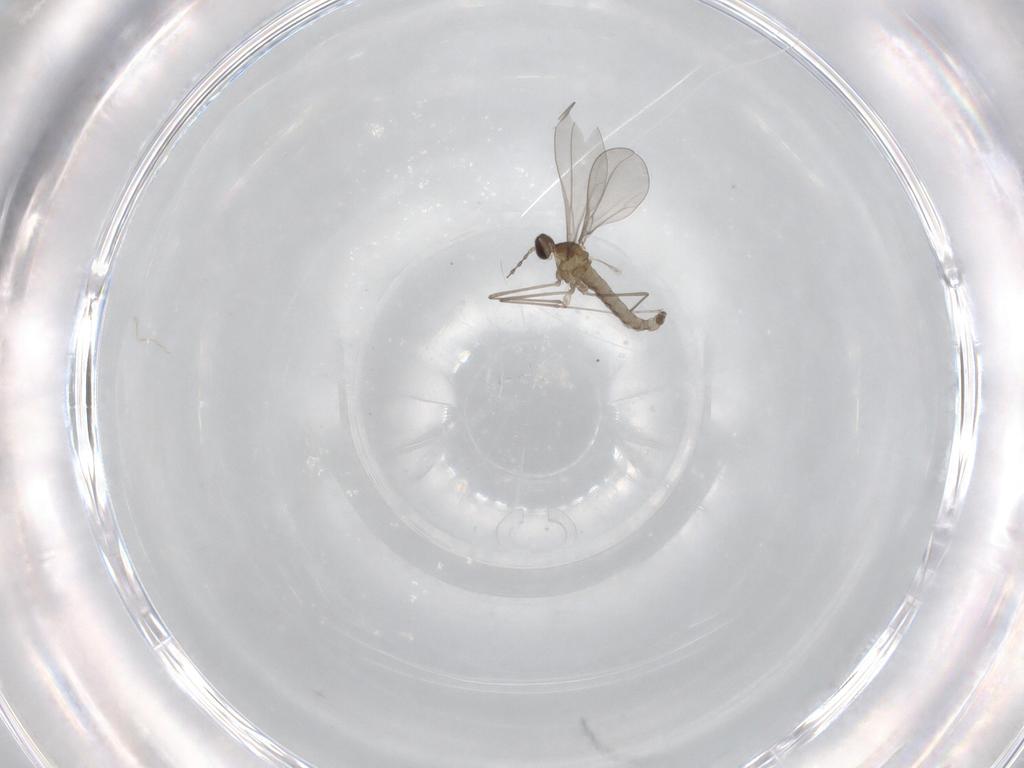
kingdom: Animalia
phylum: Arthropoda
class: Insecta
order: Diptera
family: Cecidomyiidae
